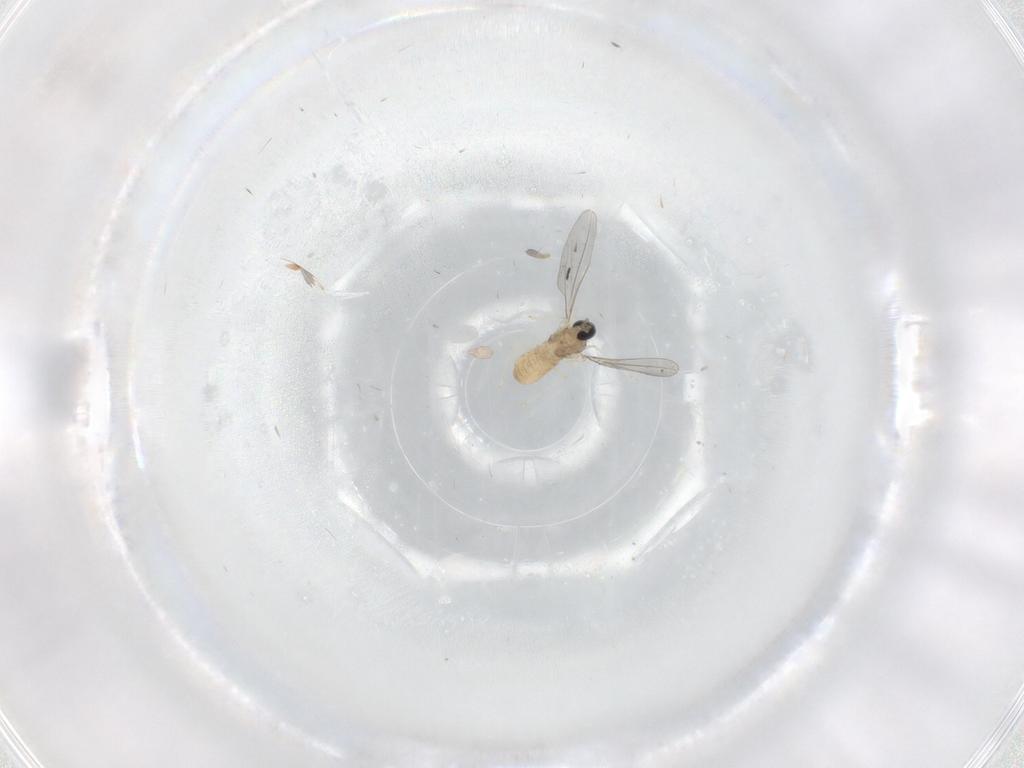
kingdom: Animalia
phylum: Arthropoda
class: Insecta
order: Diptera
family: Cecidomyiidae
